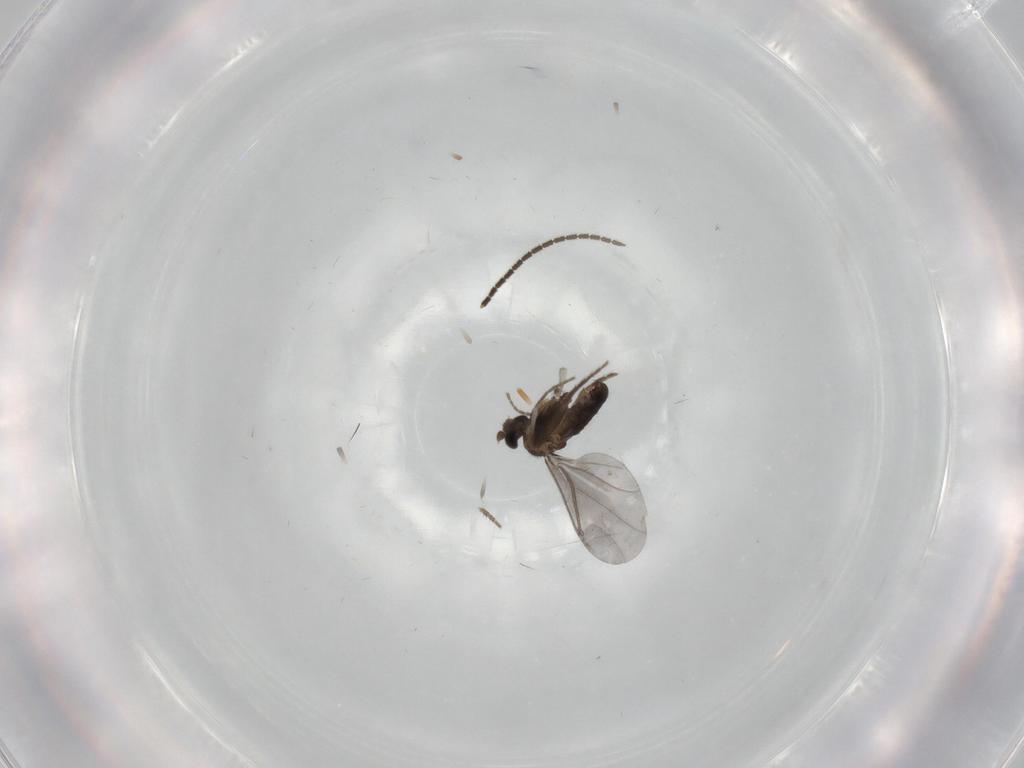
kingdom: Animalia
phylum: Arthropoda
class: Insecta
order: Diptera
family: Phoridae
